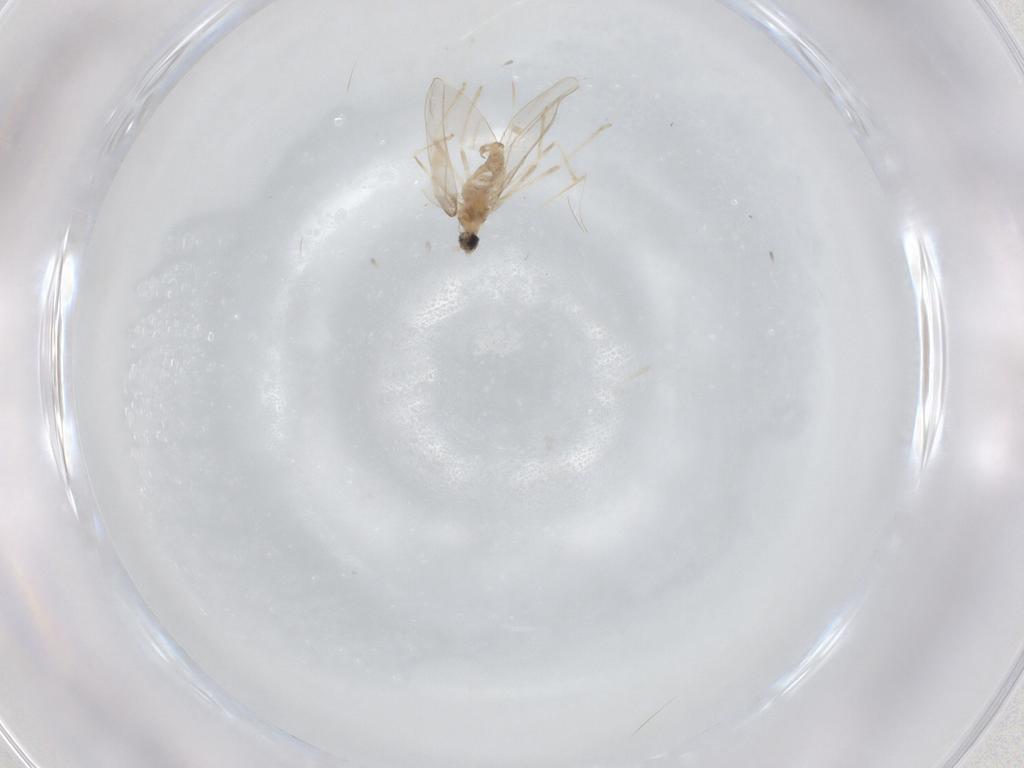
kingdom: Animalia
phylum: Arthropoda
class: Insecta
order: Diptera
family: Cecidomyiidae
